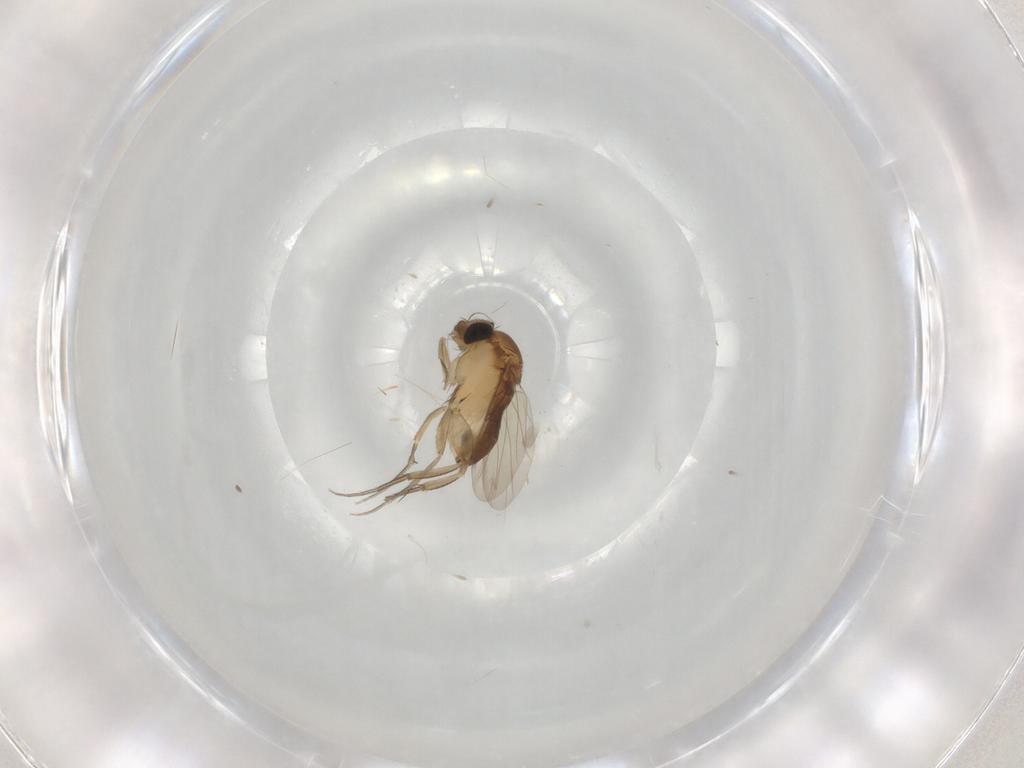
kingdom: Animalia
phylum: Arthropoda
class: Insecta
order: Diptera
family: Phoridae
